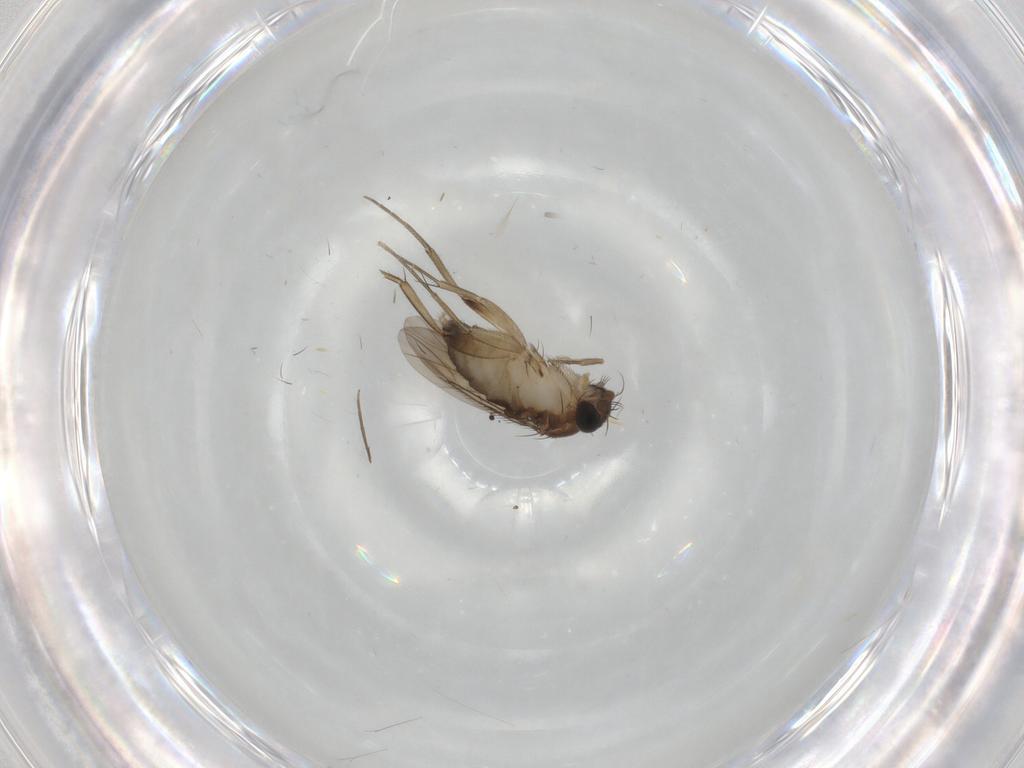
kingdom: Animalia
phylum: Arthropoda
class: Insecta
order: Diptera
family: Phoridae
